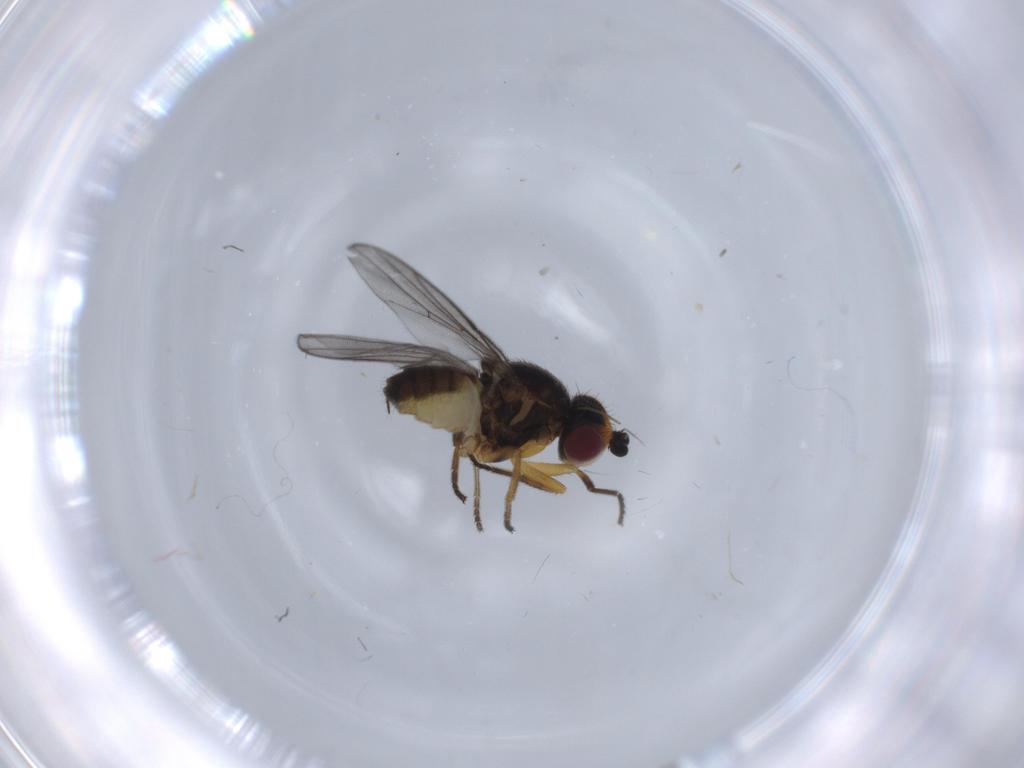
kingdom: Animalia
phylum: Arthropoda
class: Insecta
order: Diptera
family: Chloropidae
